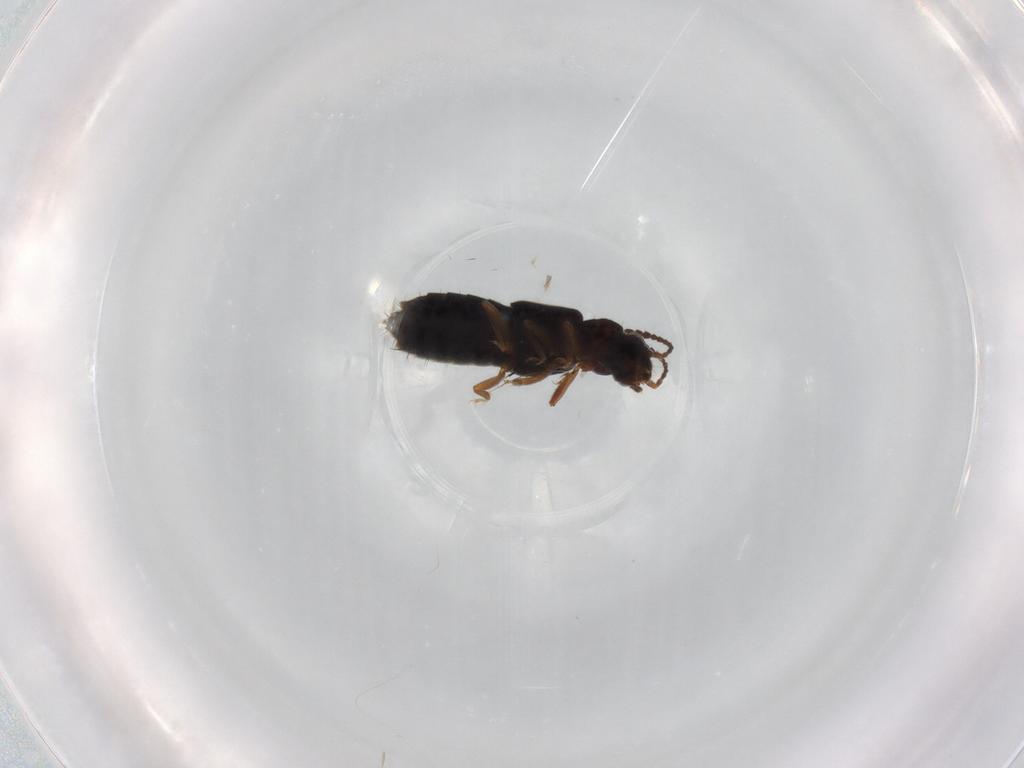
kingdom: Animalia
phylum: Arthropoda
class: Insecta
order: Coleoptera
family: Staphylinidae
